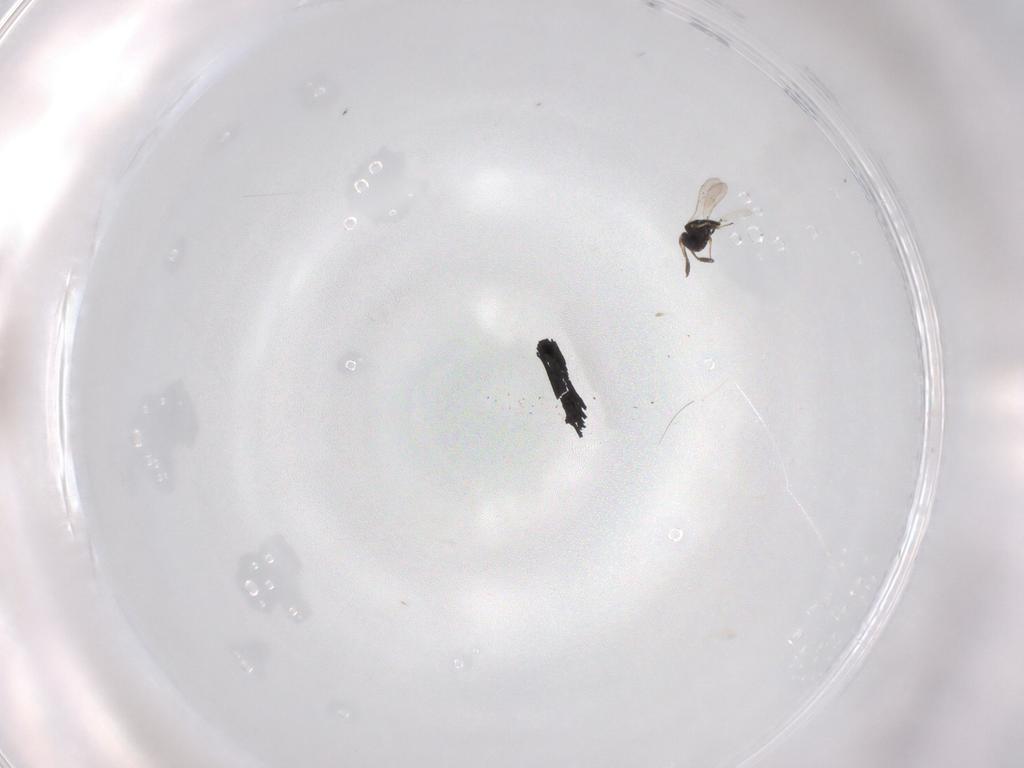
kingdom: Animalia
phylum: Arthropoda
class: Insecta
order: Hymenoptera
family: Scelionidae
